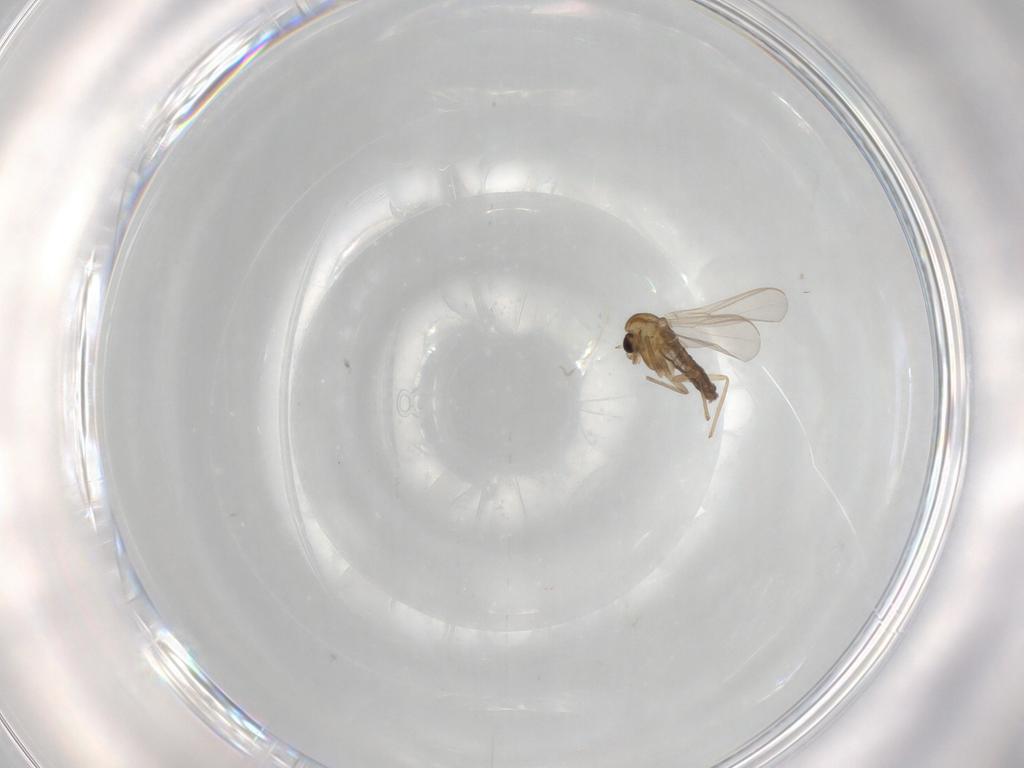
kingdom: Animalia
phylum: Arthropoda
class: Insecta
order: Diptera
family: Chironomidae
